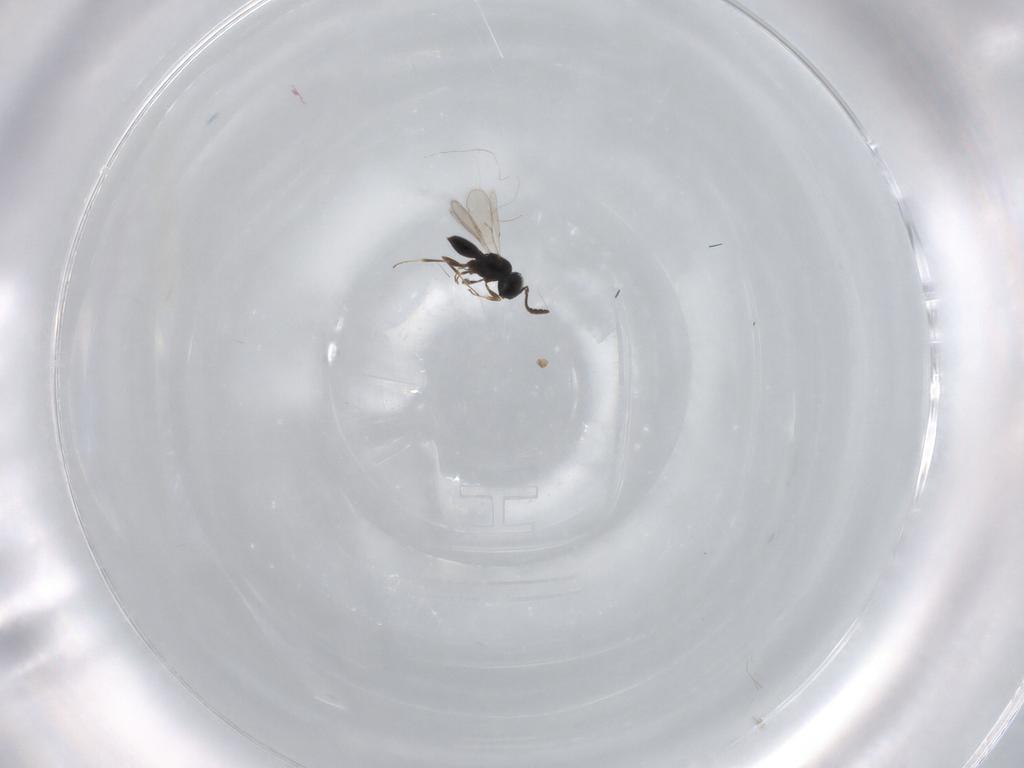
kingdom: Animalia
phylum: Arthropoda
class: Insecta
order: Hymenoptera
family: Scelionidae
